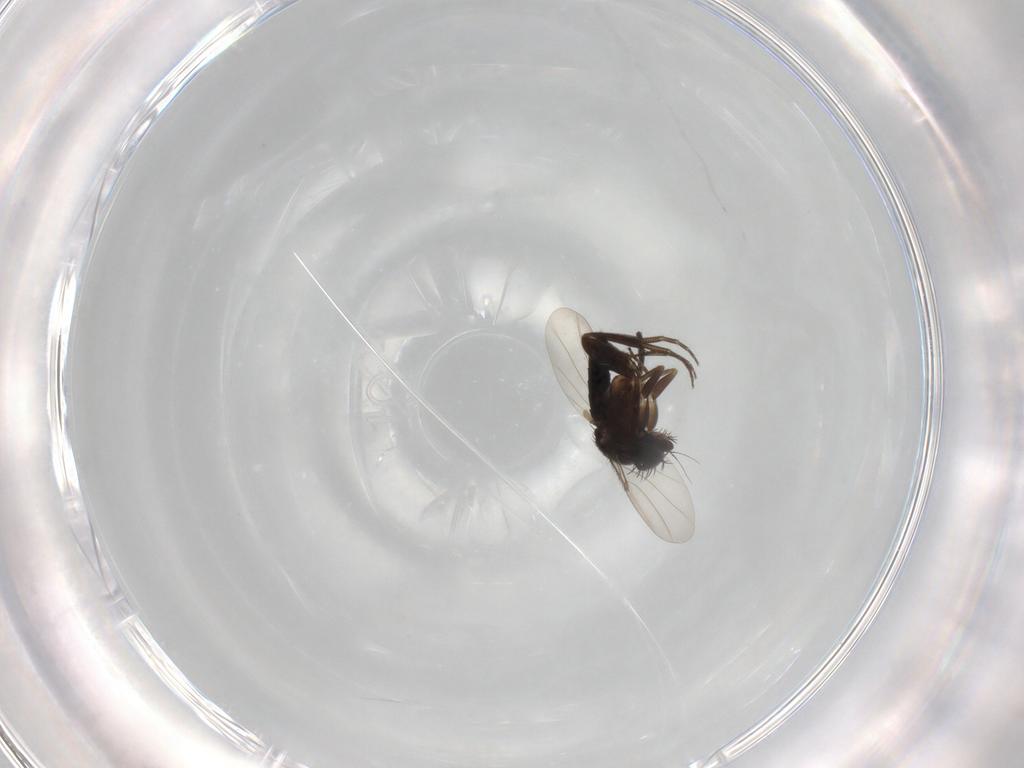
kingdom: Animalia
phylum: Arthropoda
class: Insecta
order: Diptera
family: Phoridae
